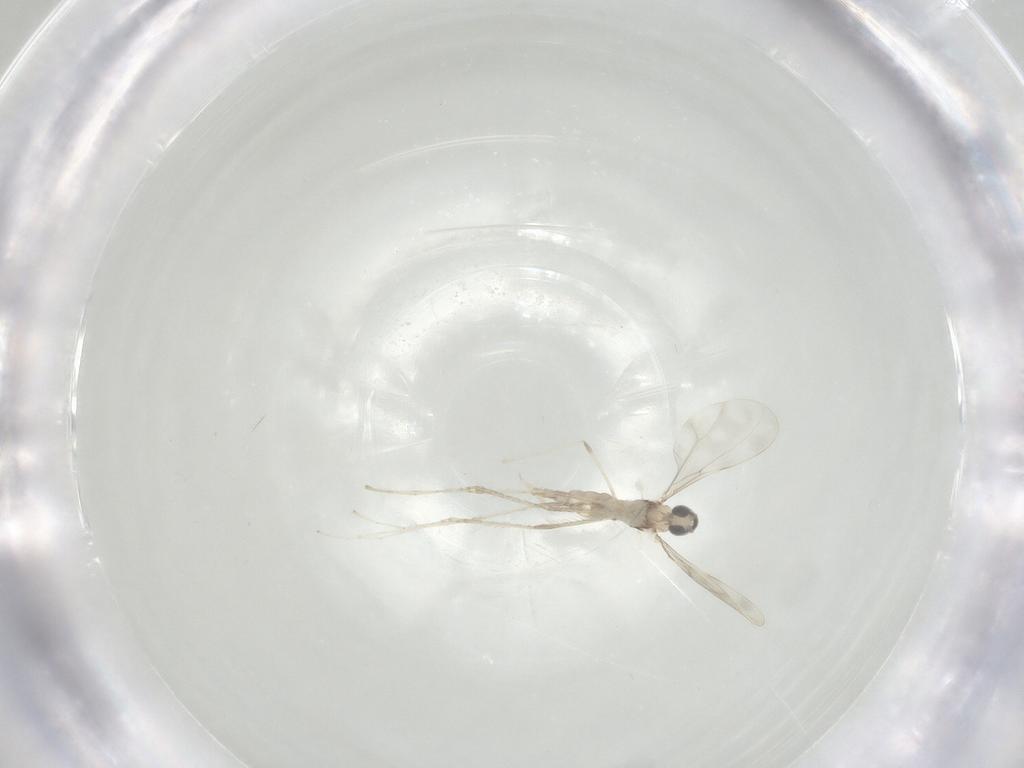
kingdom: Animalia
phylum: Arthropoda
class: Insecta
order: Diptera
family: Cecidomyiidae
